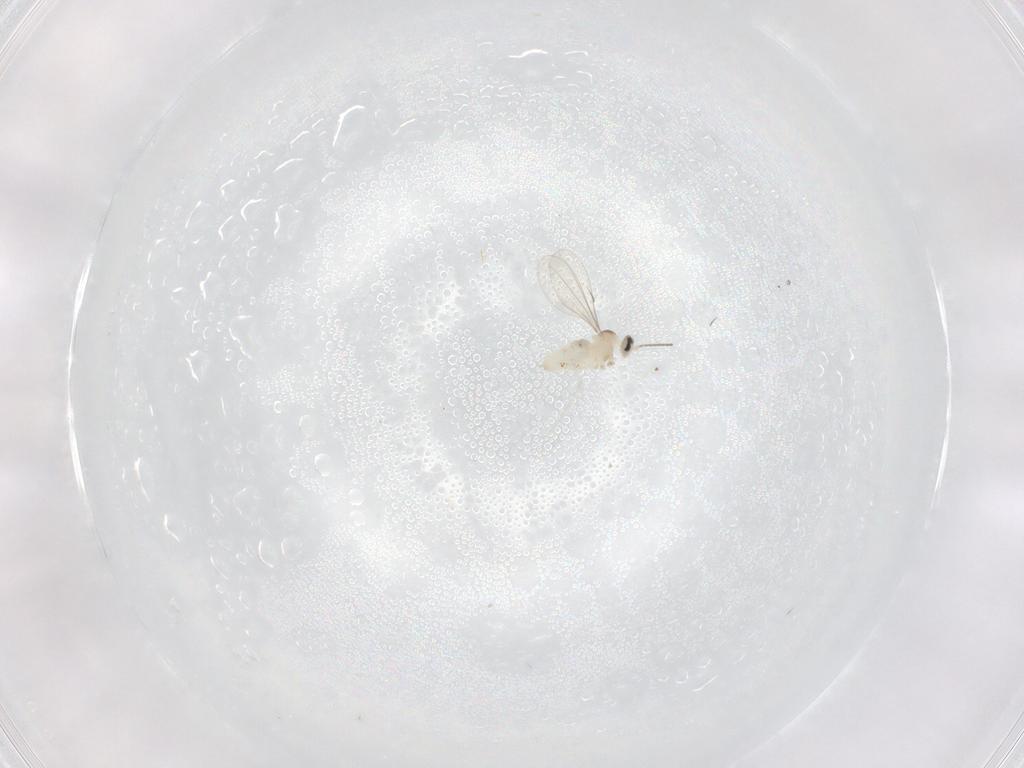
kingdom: Animalia
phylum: Arthropoda
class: Insecta
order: Diptera
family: Cecidomyiidae
